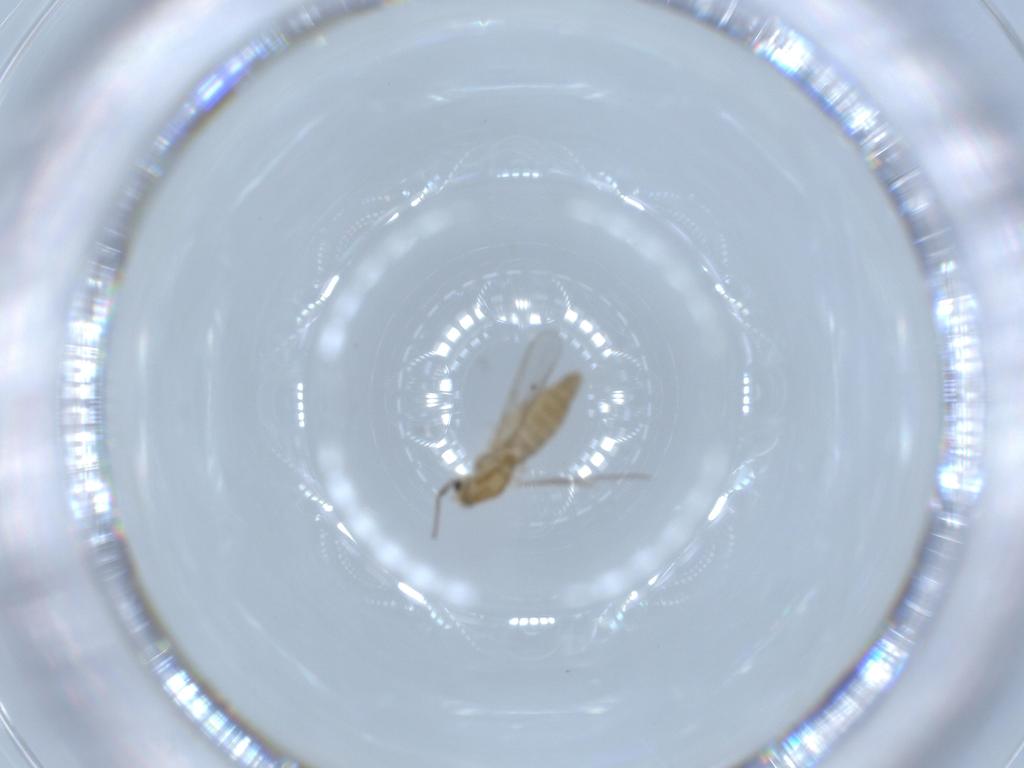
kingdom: Animalia
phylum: Arthropoda
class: Insecta
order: Diptera
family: Chironomidae
